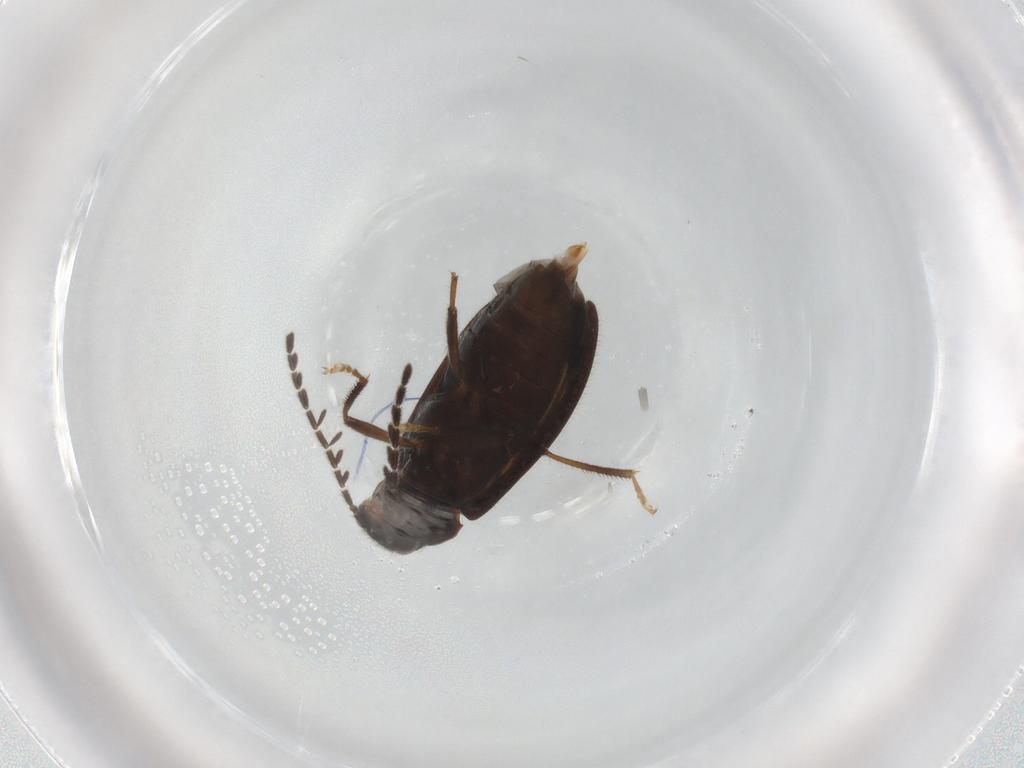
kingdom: Animalia
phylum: Arthropoda
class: Insecta
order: Coleoptera
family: Ptilodactylidae
